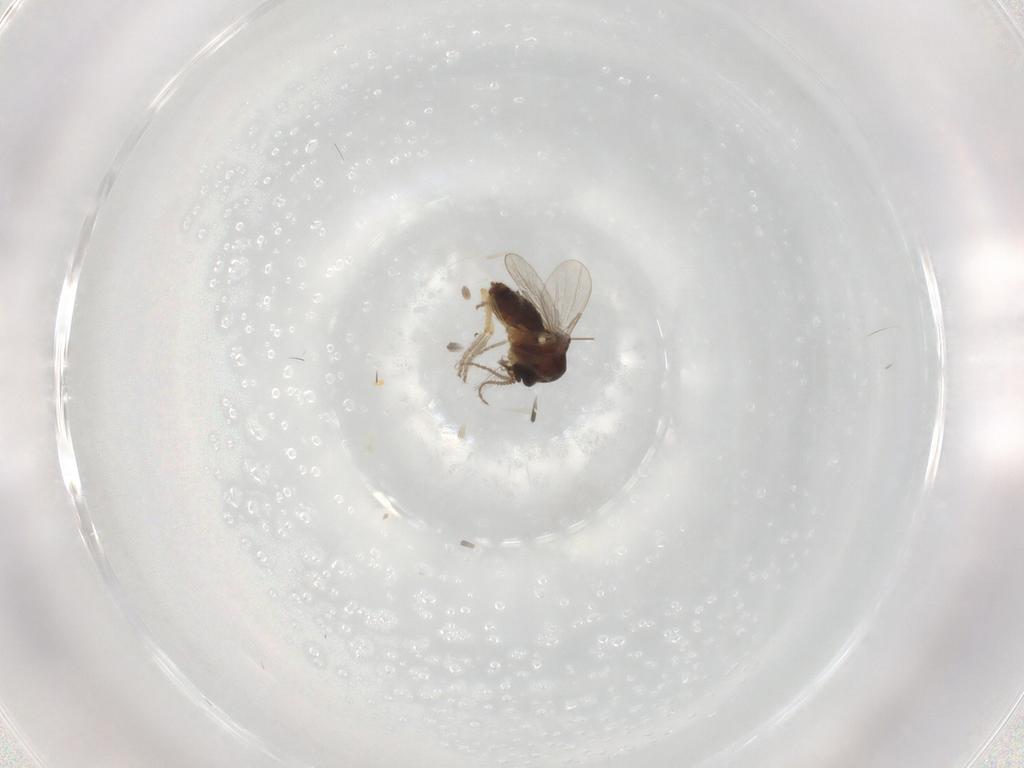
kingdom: Animalia
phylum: Arthropoda
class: Insecta
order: Diptera
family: Ceratopogonidae
